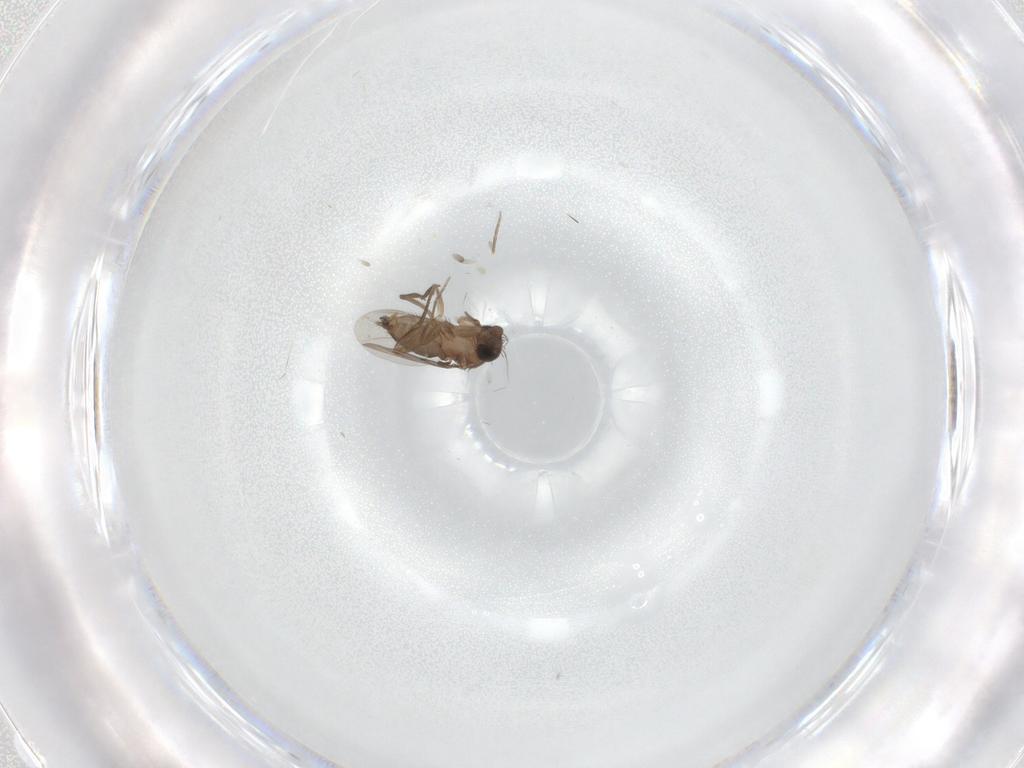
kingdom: Animalia
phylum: Arthropoda
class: Insecta
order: Diptera
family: Phoridae
